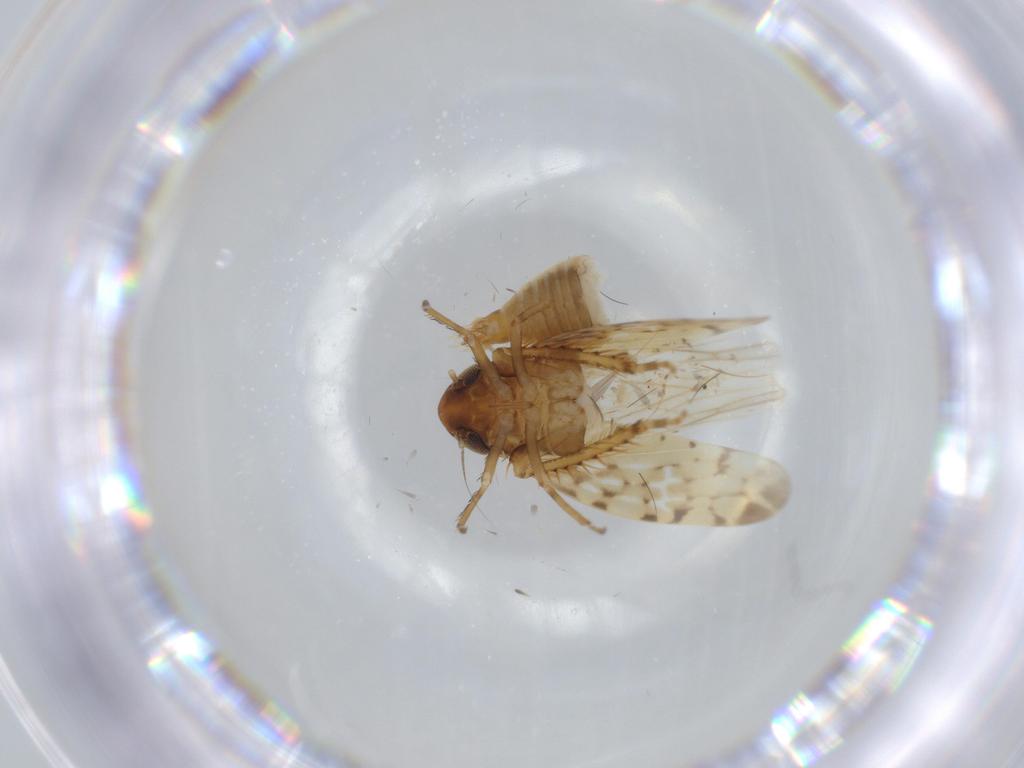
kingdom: Animalia
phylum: Arthropoda
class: Insecta
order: Hemiptera
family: Cicadellidae
